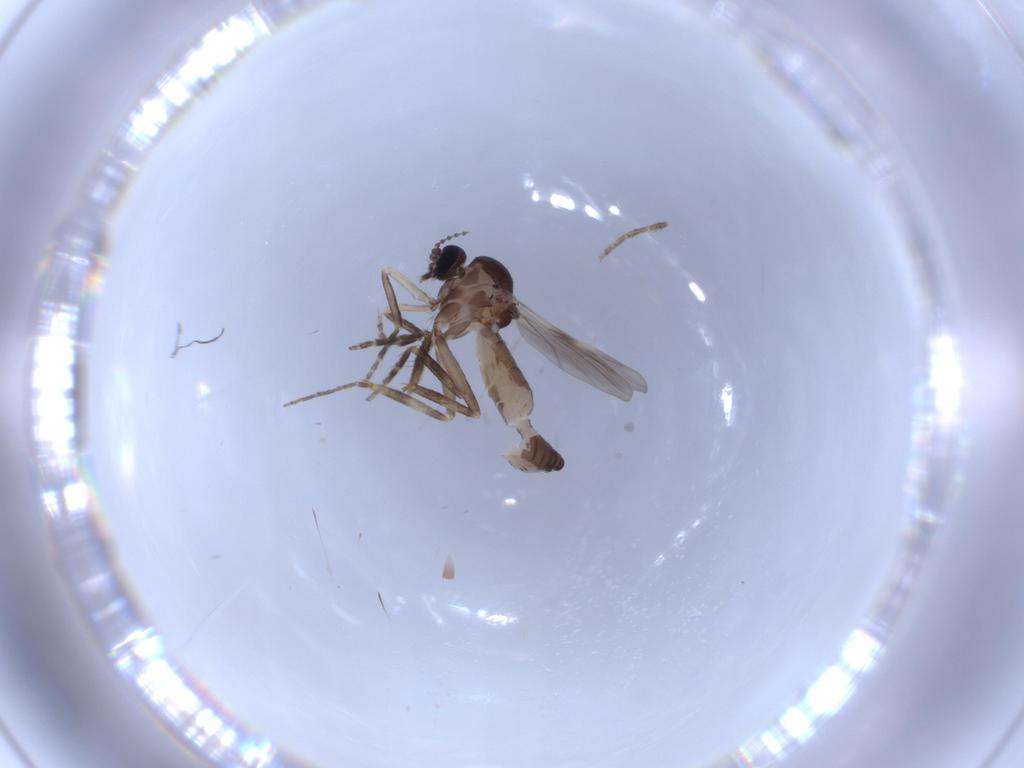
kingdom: Animalia
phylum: Arthropoda
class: Insecta
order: Diptera
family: Ceratopogonidae
